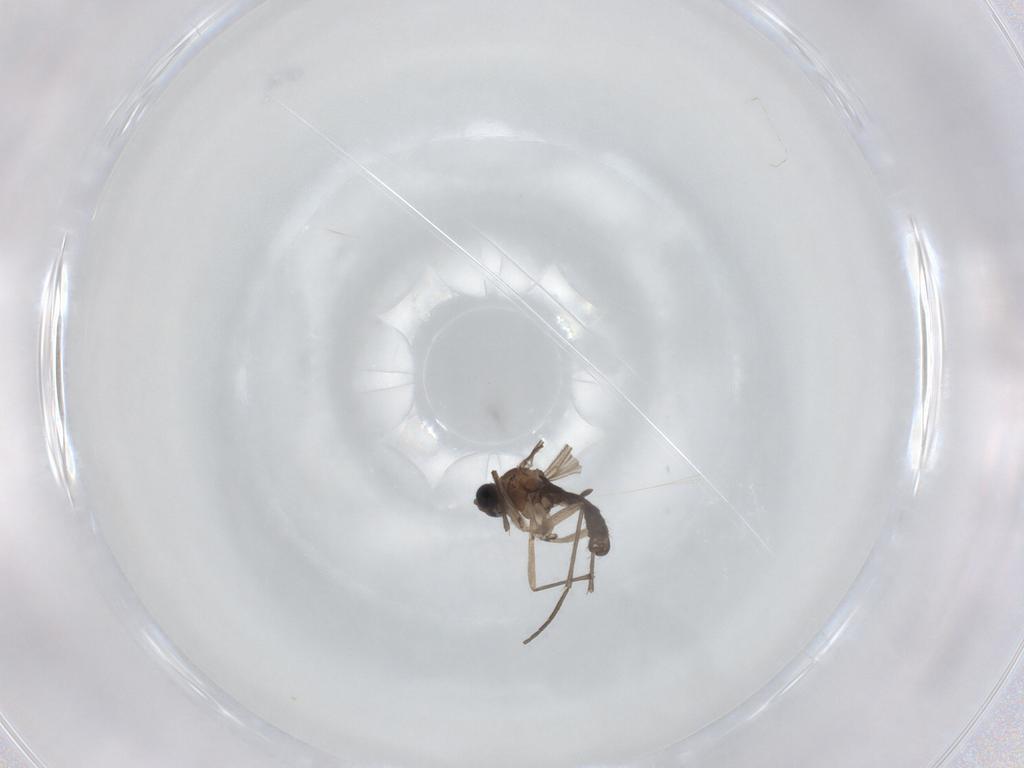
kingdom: Animalia
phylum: Arthropoda
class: Insecta
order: Diptera
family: Sciaridae
